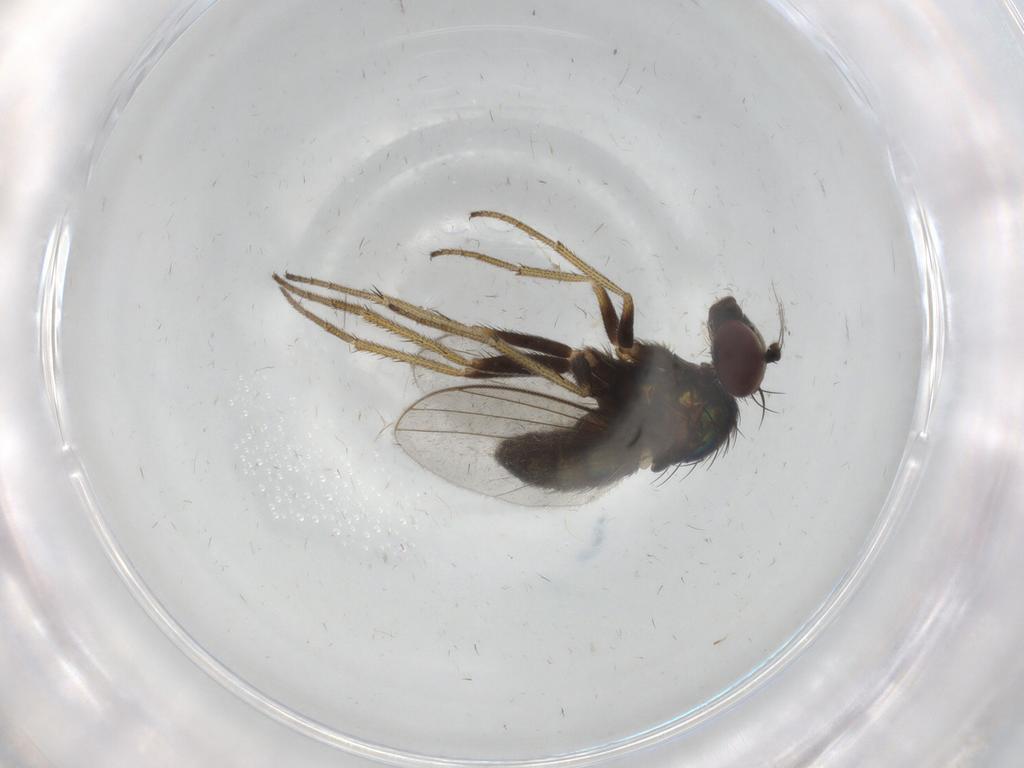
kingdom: Animalia
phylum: Arthropoda
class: Insecta
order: Diptera
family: Dolichopodidae
